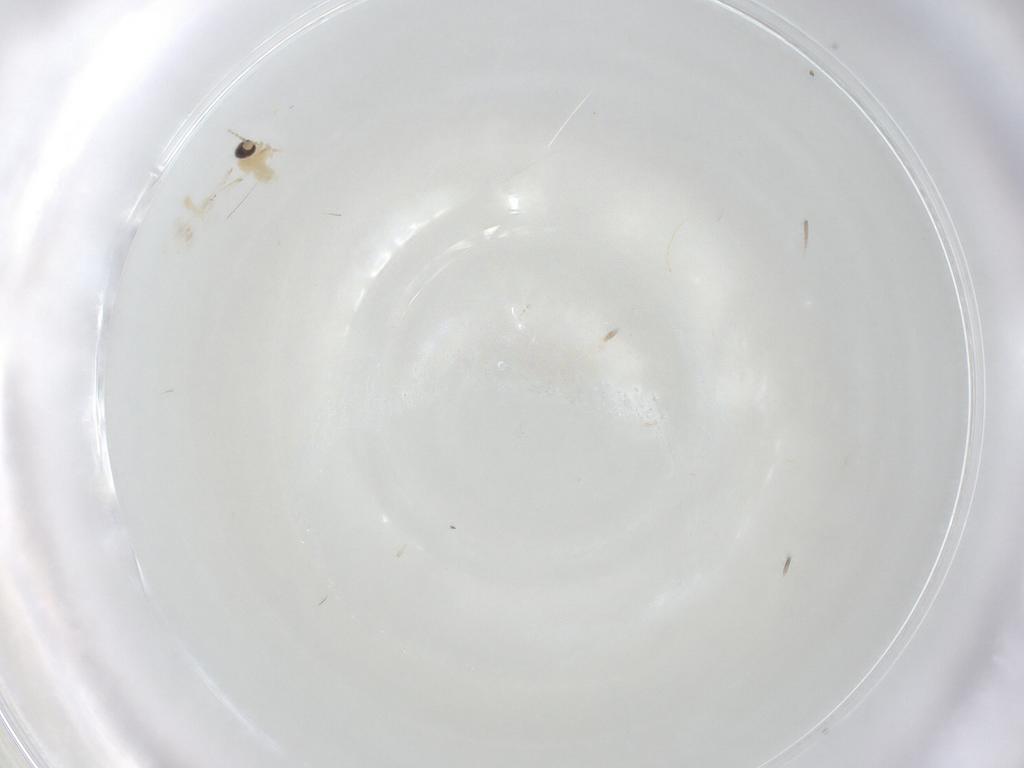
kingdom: Animalia
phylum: Arthropoda
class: Insecta
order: Diptera
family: Cecidomyiidae
